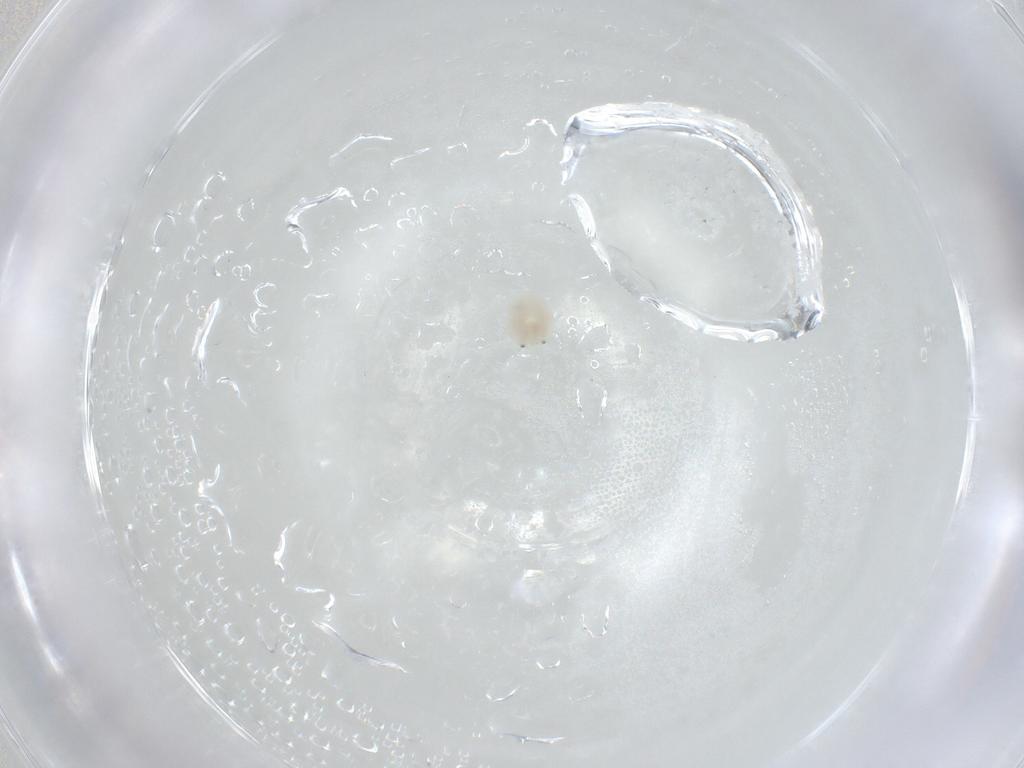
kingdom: Animalia
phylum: Arthropoda
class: Arachnida
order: Trombidiformes
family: Arrenuridae
